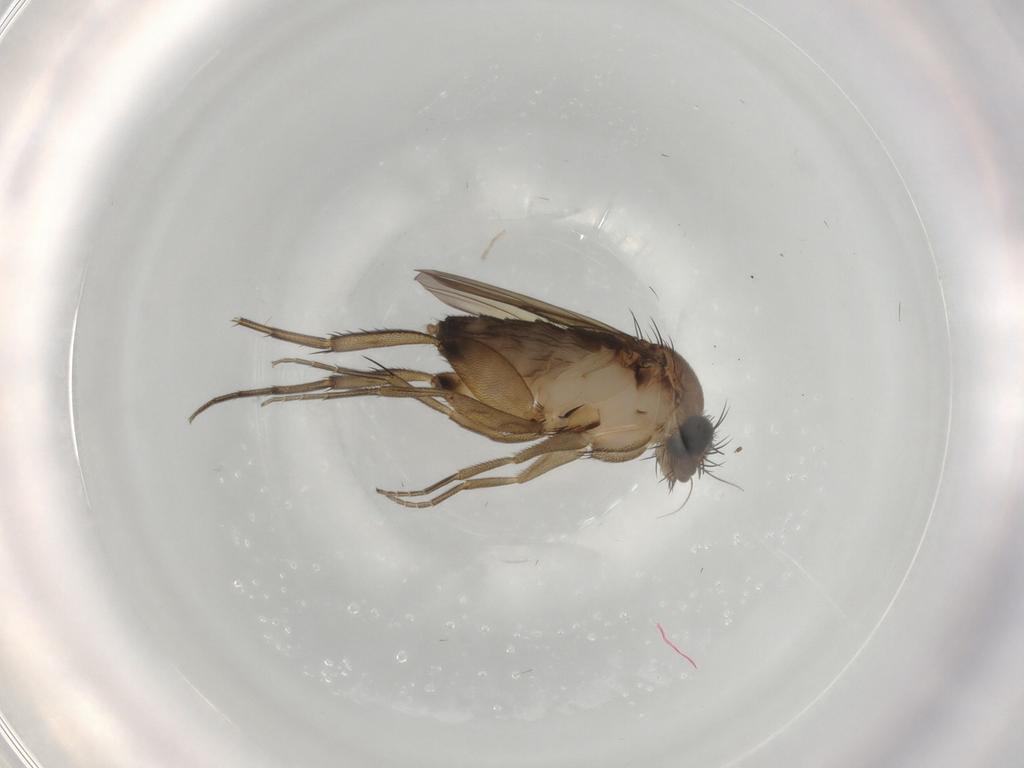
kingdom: Animalia
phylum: Arthropoda
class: Insecta
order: Diptera
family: Phoridae
